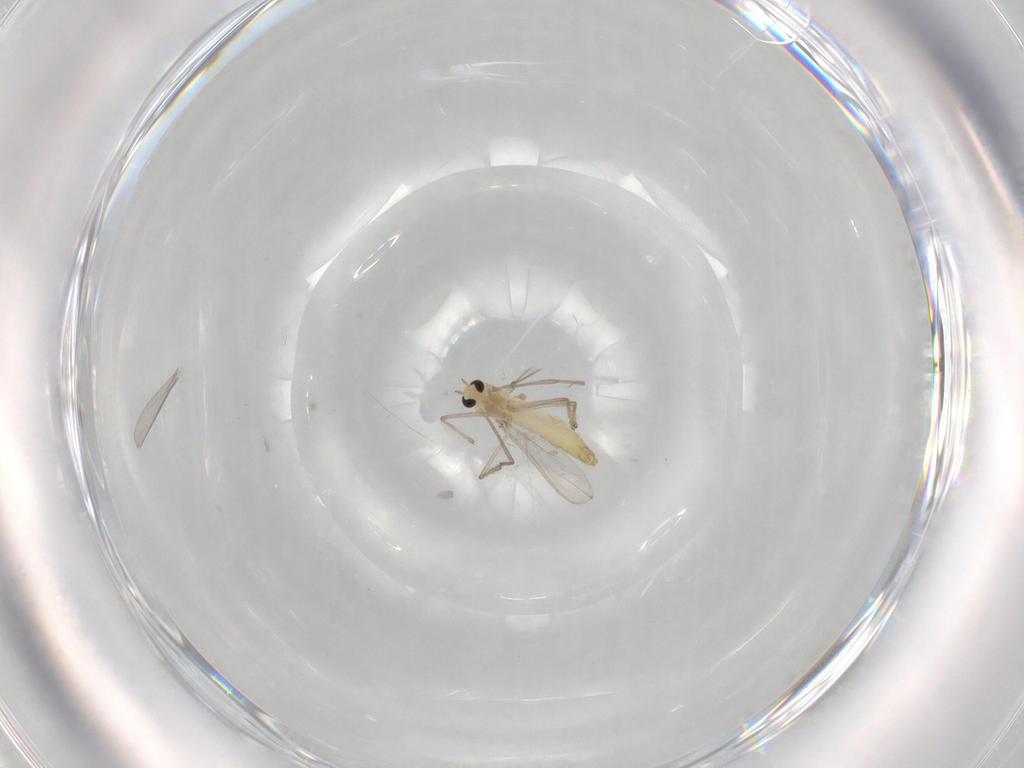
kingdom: Animalia
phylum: Arthropoda
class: Insecta
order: Diptera
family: Chironomidae
